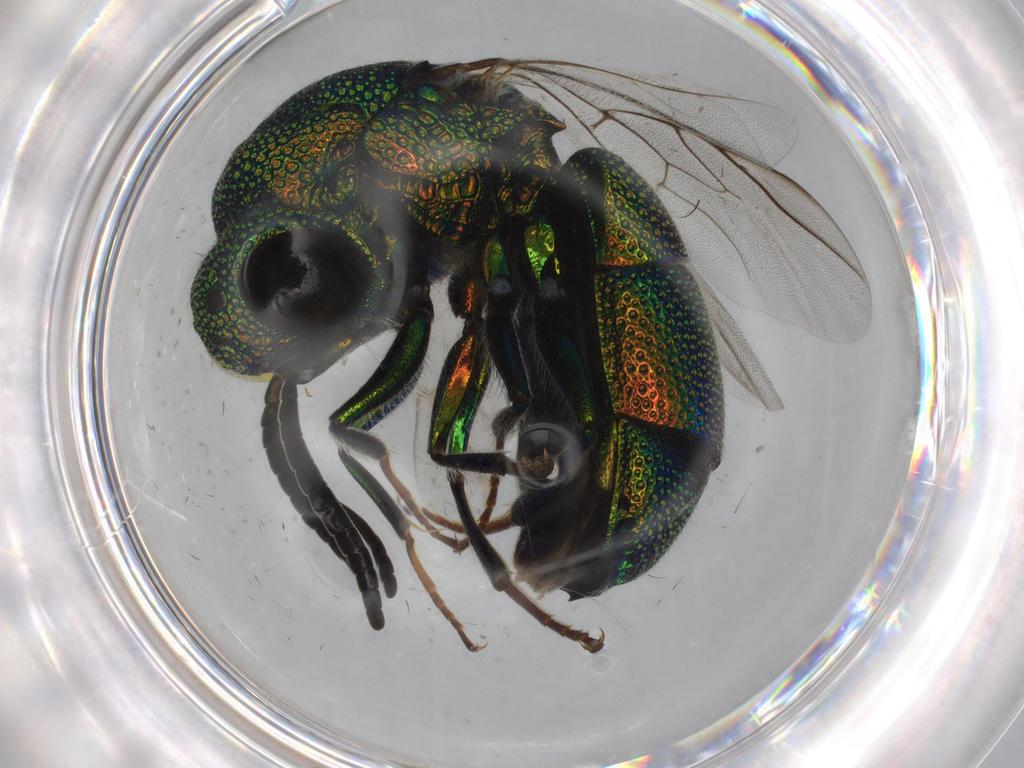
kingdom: Animalia
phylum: Arthropoda
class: Insecta
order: Hymenoptera
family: Chrysididae
